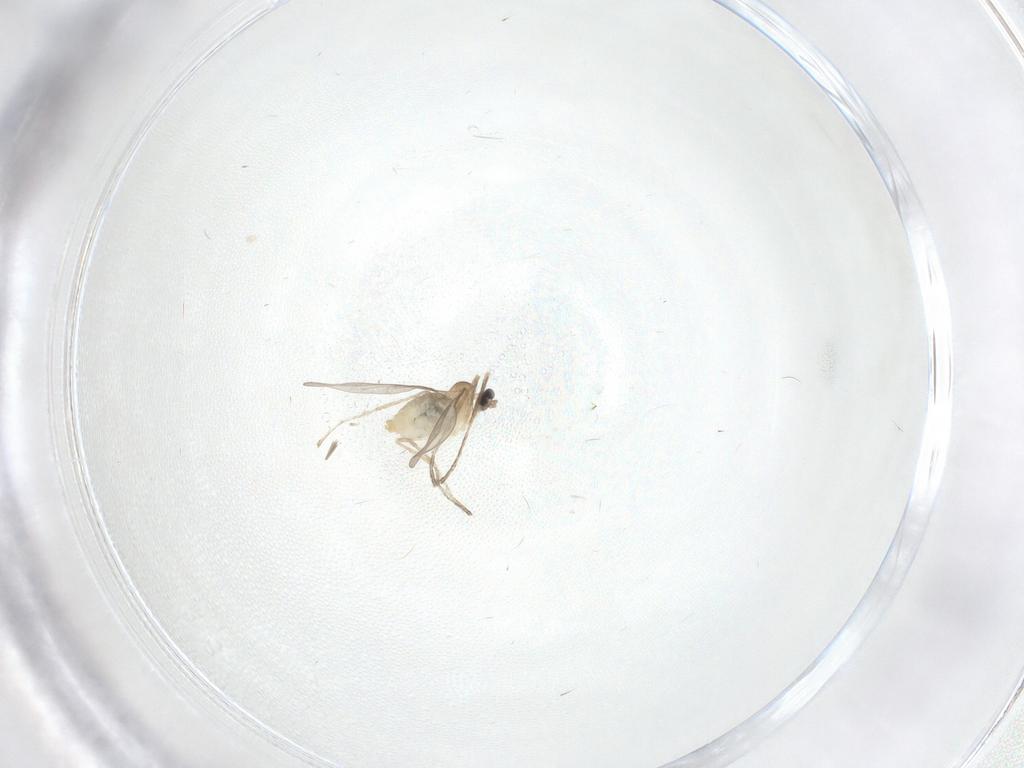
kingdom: Animalia
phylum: Arthropoda
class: Insecta
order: Diptera
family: Cecidomyiidae
